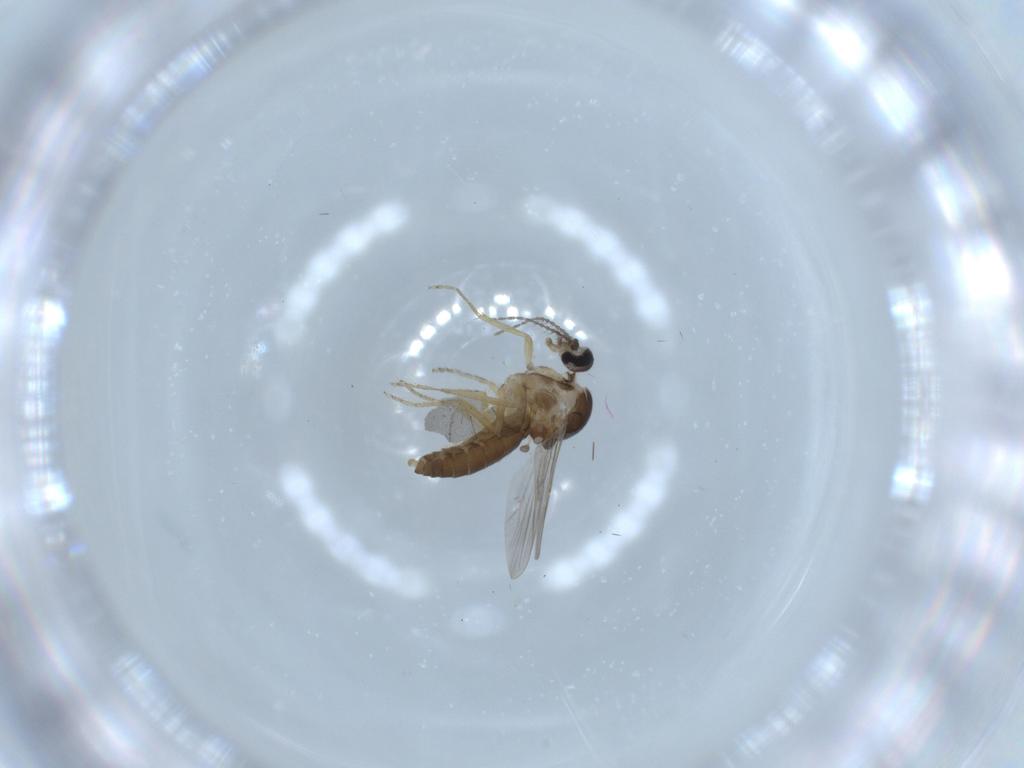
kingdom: Animalia
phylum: Arthropoda
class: Insecta
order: Diptera
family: Ceratopogonidae
